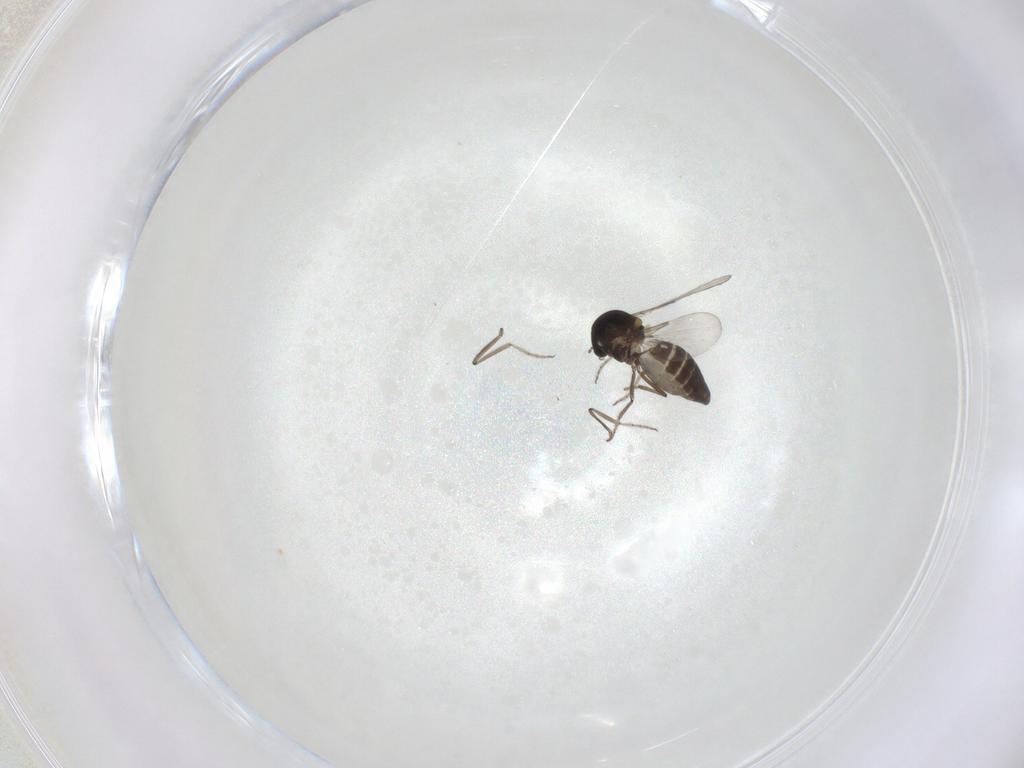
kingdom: Animalia
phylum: Arthropoda
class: Insecta
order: Diptera
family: Ceratopogonidae
